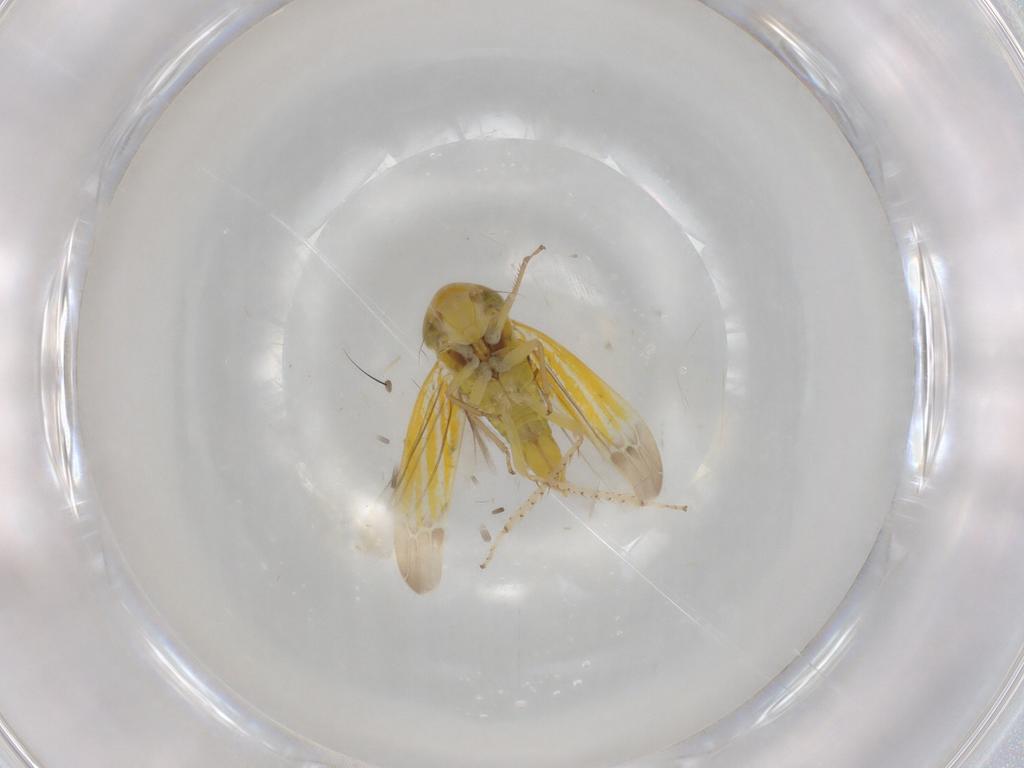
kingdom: Animalia
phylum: Arthropoda
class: Insecta
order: Hemiptera
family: Cicadellidae
